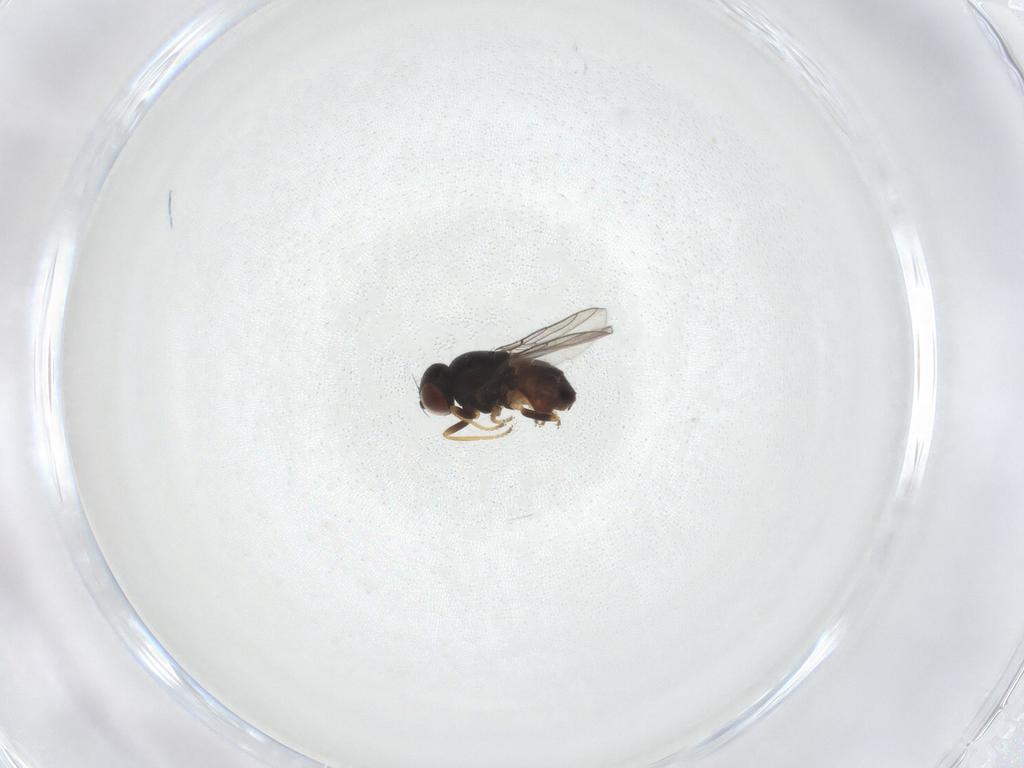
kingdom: Animalia
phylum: Arthropoda
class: Insecta
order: Diptera
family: Chloropidae
